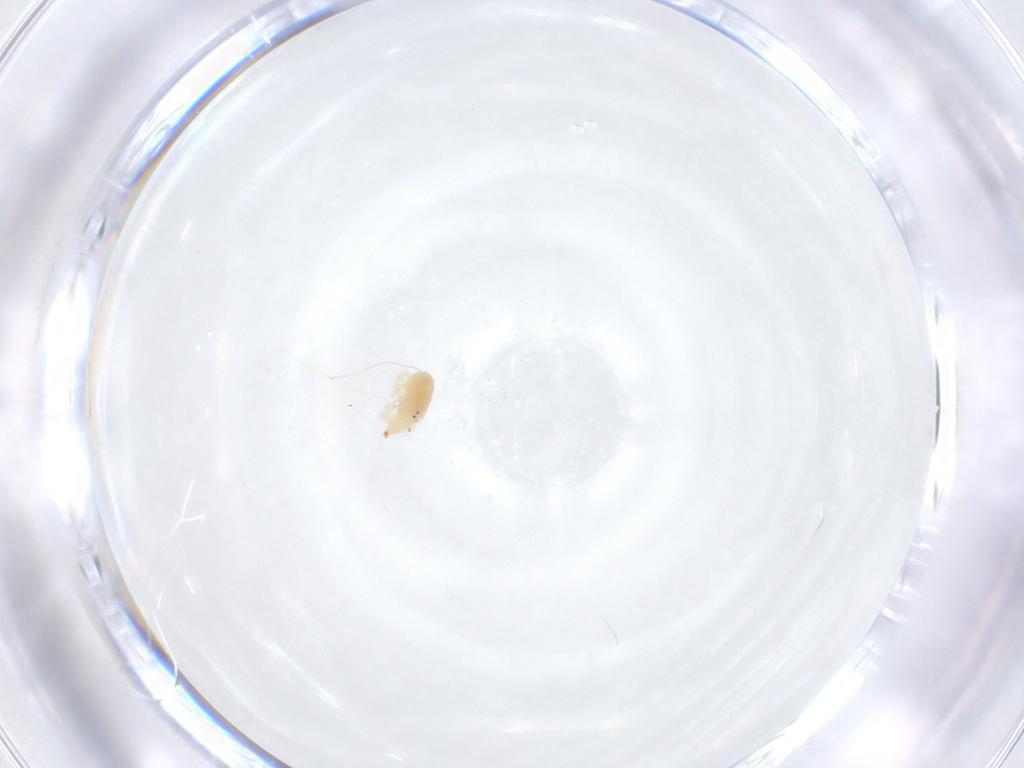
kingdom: Animalia
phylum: Arthropoda
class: Arachnida
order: Trombidiformes
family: Bdellidae
